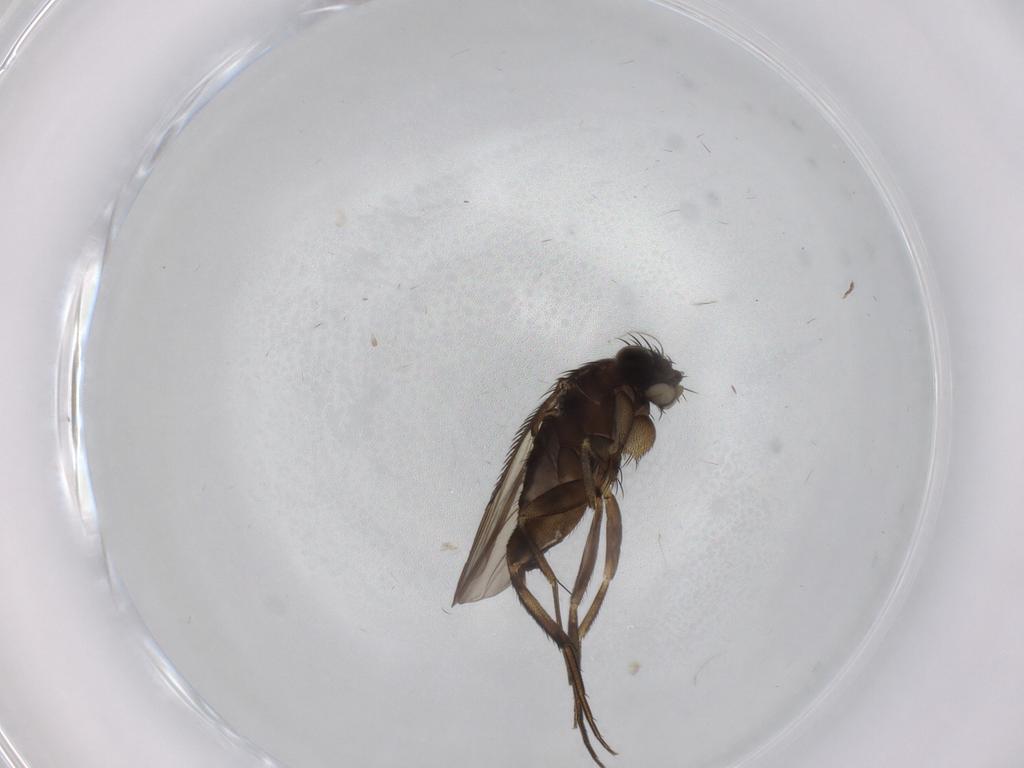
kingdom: Animalia
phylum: Arthropoda
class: Insecta
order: Diptera
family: Phoridae
